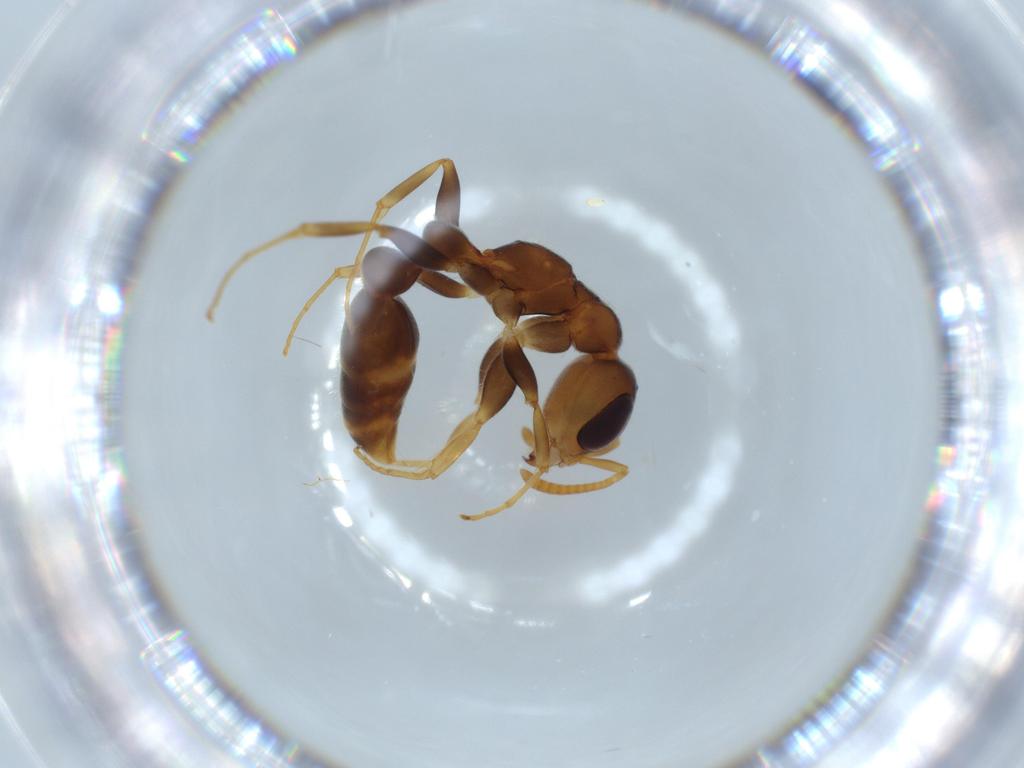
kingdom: Animalia
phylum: Arthropoda
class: Insecta
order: Hymenoptera
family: Formicidae
